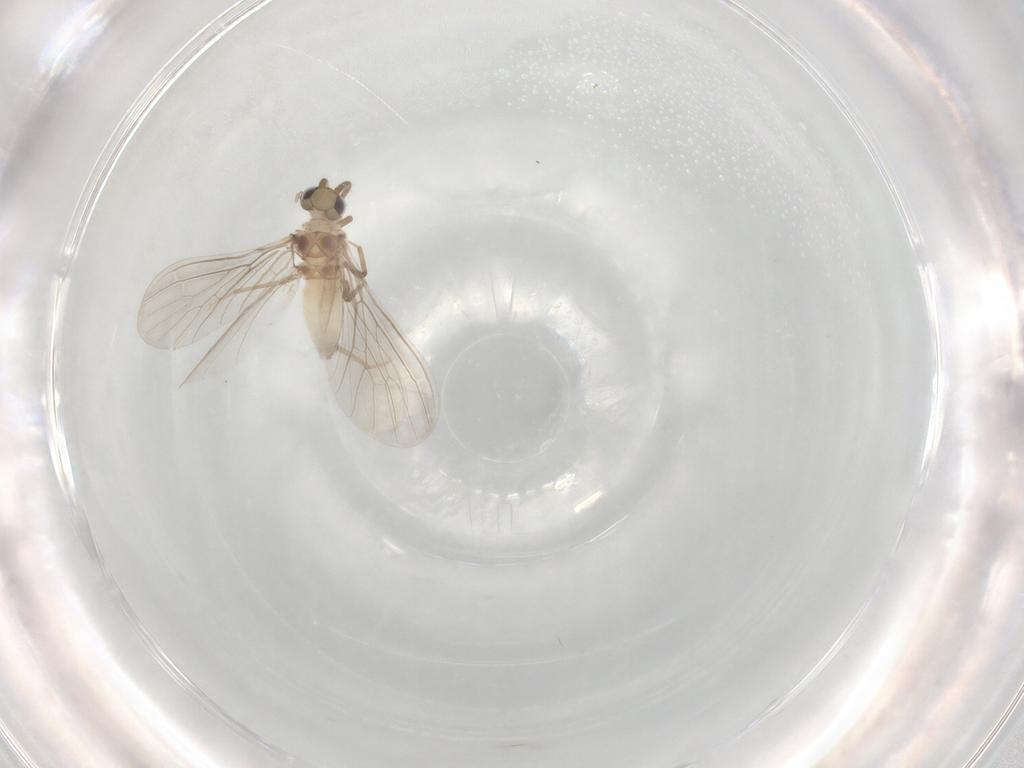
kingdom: Animalia
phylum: Arthropoda
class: Insecta
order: Neuroptera
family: Coniopterygidae
